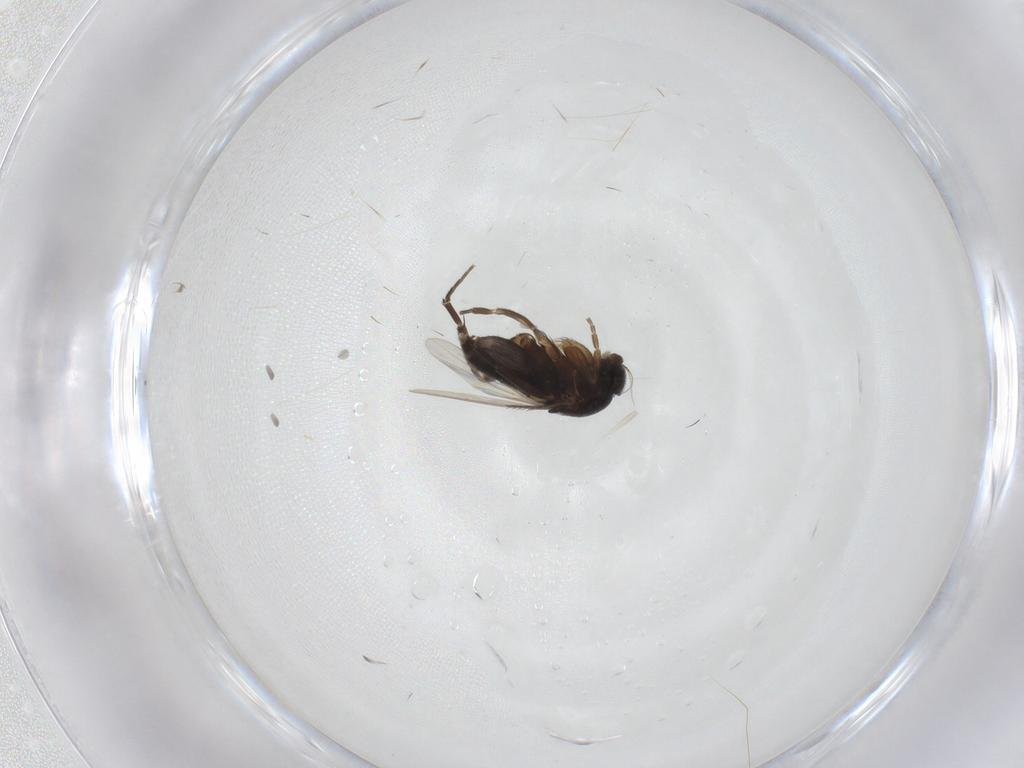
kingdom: Animalia
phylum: Arthropoda
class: Insecta
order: Diptera
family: Phoridae
